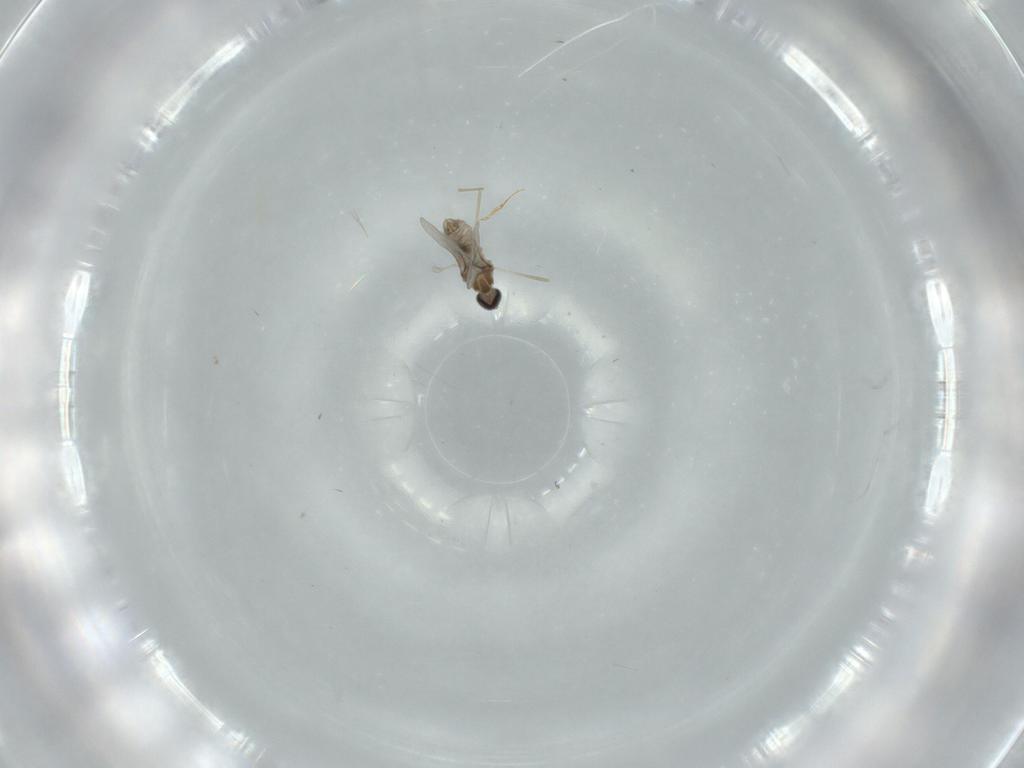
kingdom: Animalia
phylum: Arthropoda
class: Insecta
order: Diptera
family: Cecidomyiidae
